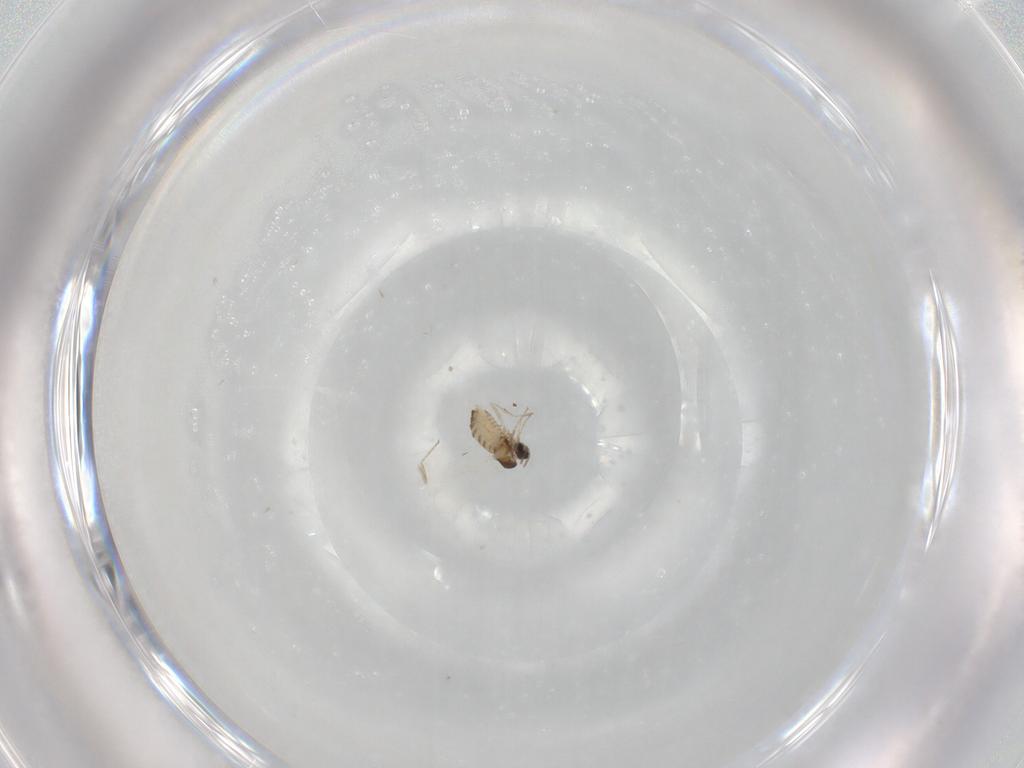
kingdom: Animalia
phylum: Arthropoda
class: Insecta
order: Diptera
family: Cecidomyiidae
